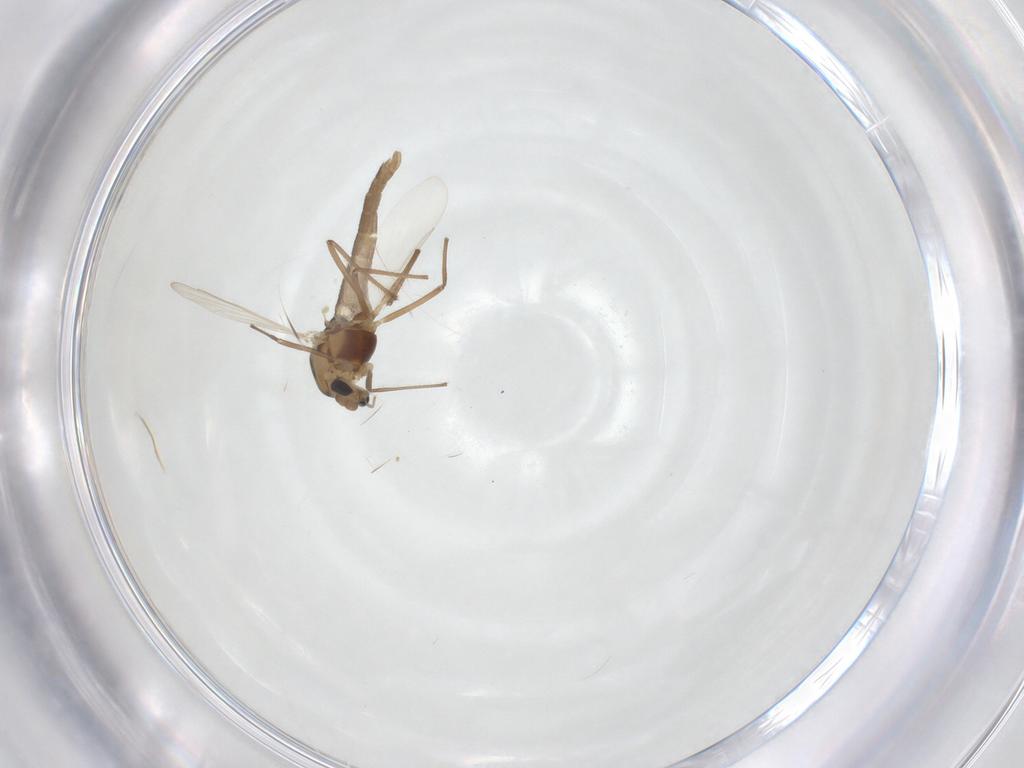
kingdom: Animalia
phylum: Arthropoda
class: Insecta
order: Diptera
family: Chironomidae
